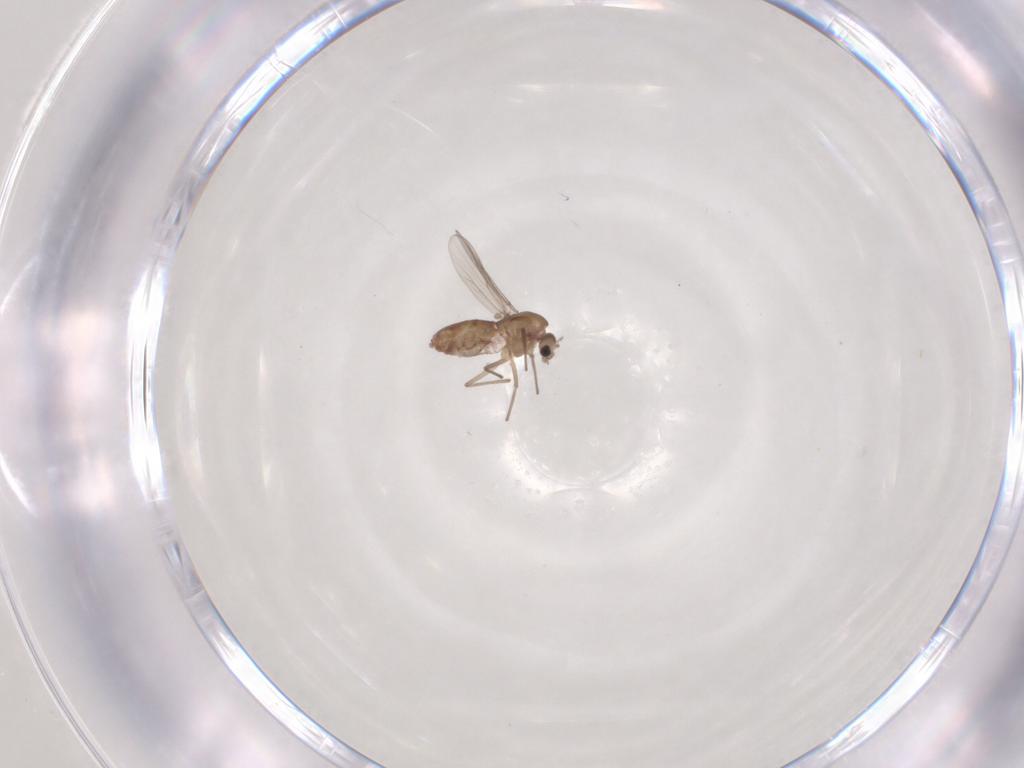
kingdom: Animalia
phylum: Arthropoda
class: Insecta
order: Diptera
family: Chironomidae
